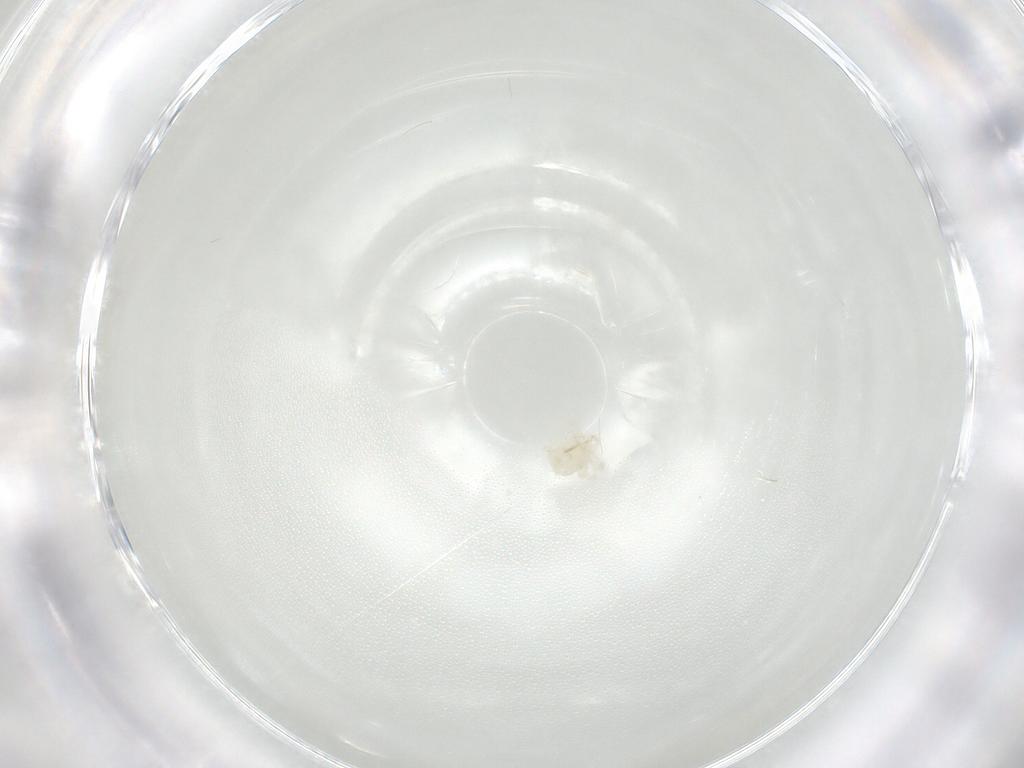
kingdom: Animalia
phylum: Arthropoda
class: Arachnida
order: Trombidiformes
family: Anystidae
